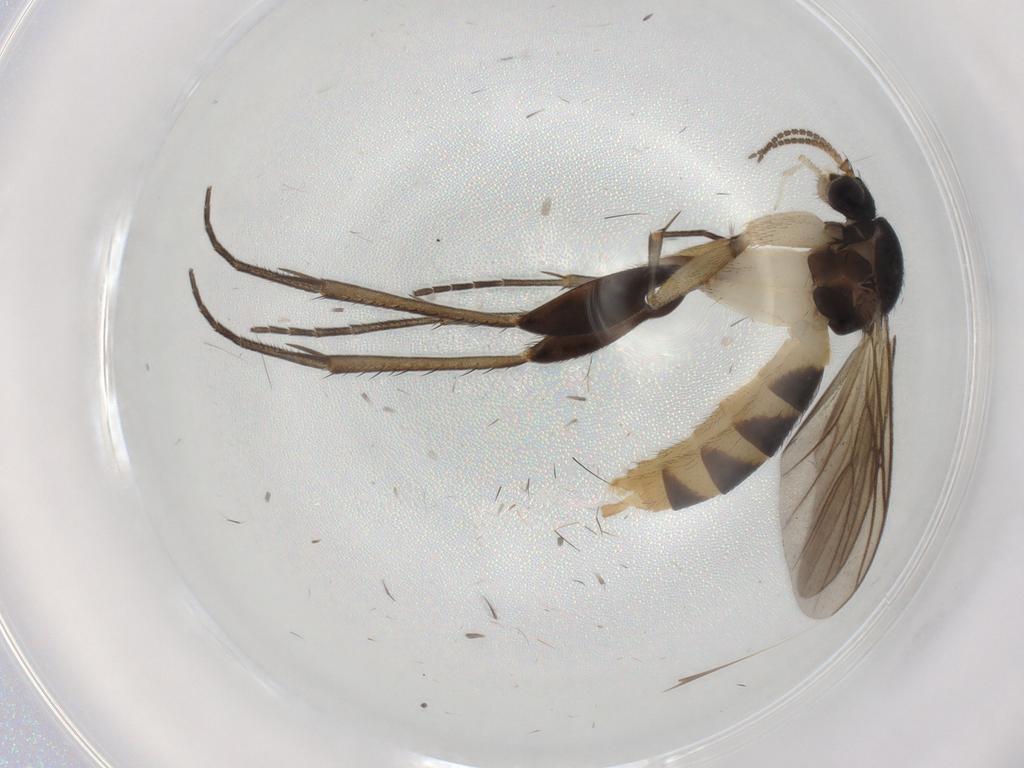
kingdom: Animalia
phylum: Arthropoda
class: Insecta
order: Diptera
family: Mycetophilidae
